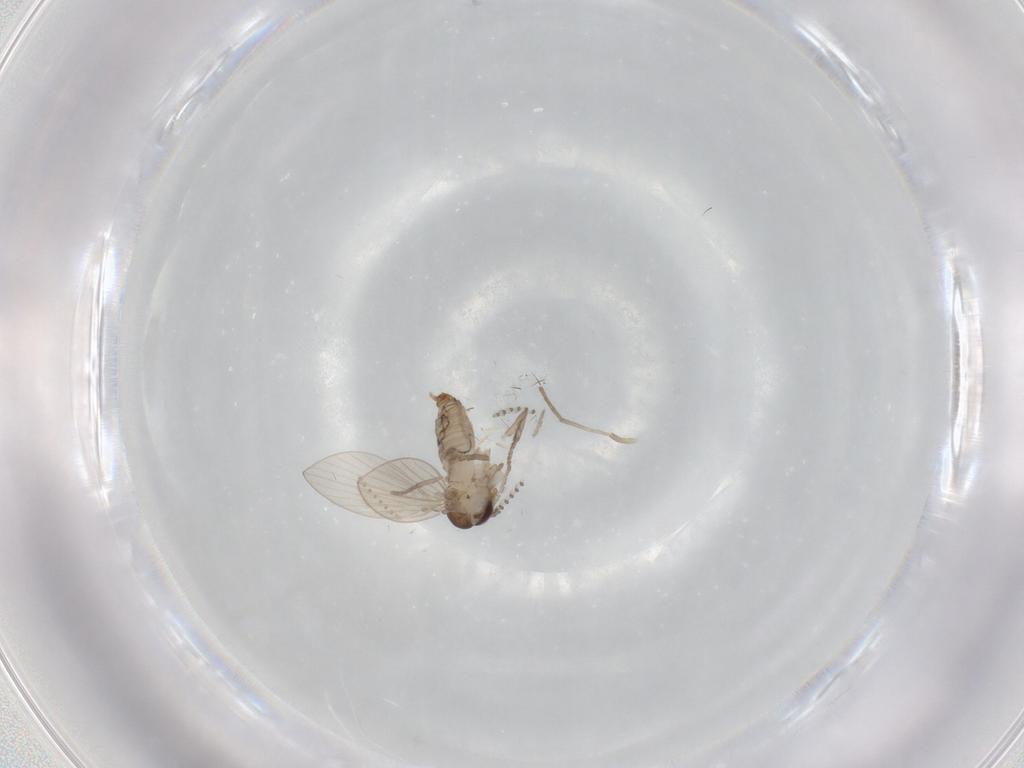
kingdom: Animalia
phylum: Arthropoda
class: Insecta
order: Diptera
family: Psychodidae
